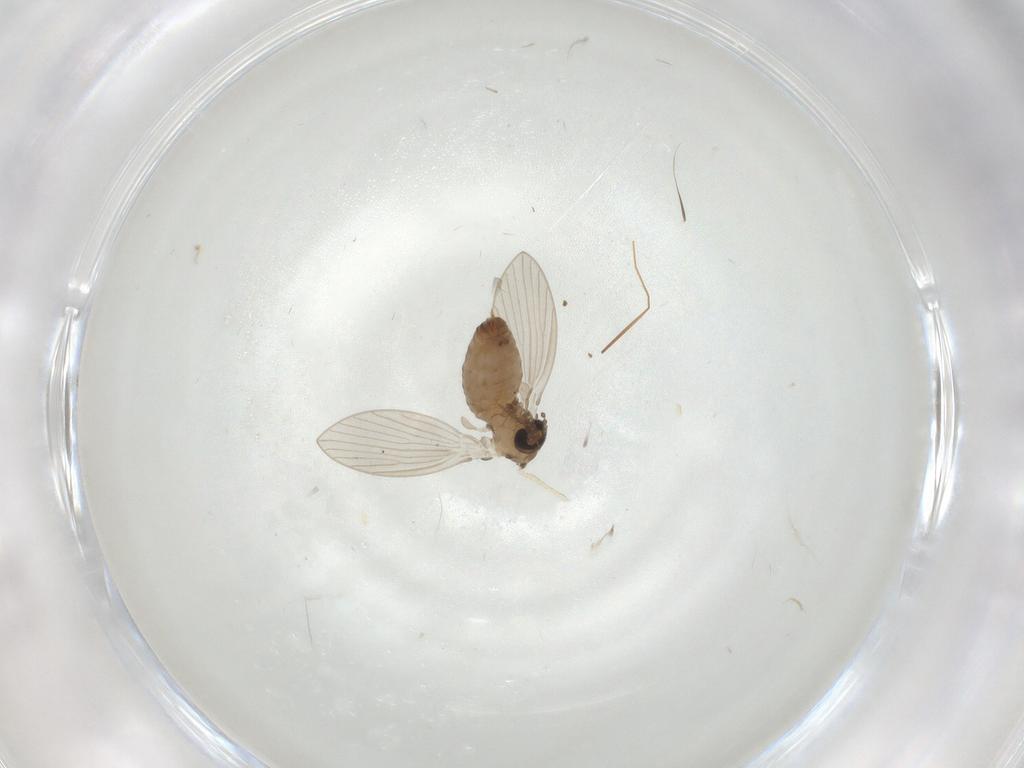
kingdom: Animalia
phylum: Arthropoda
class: Insecta
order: Diptera
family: Cecidomyiidae
